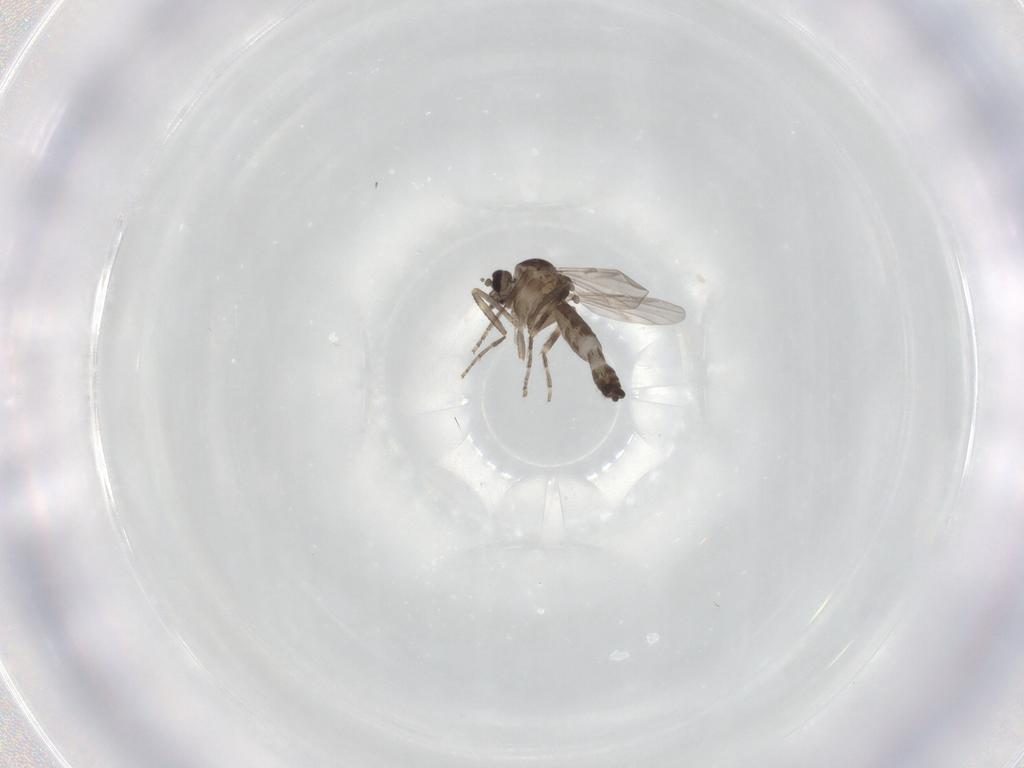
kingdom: Animalia
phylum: Arthropoda
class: Insecta
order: Diptera
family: Ceratopogonidae
